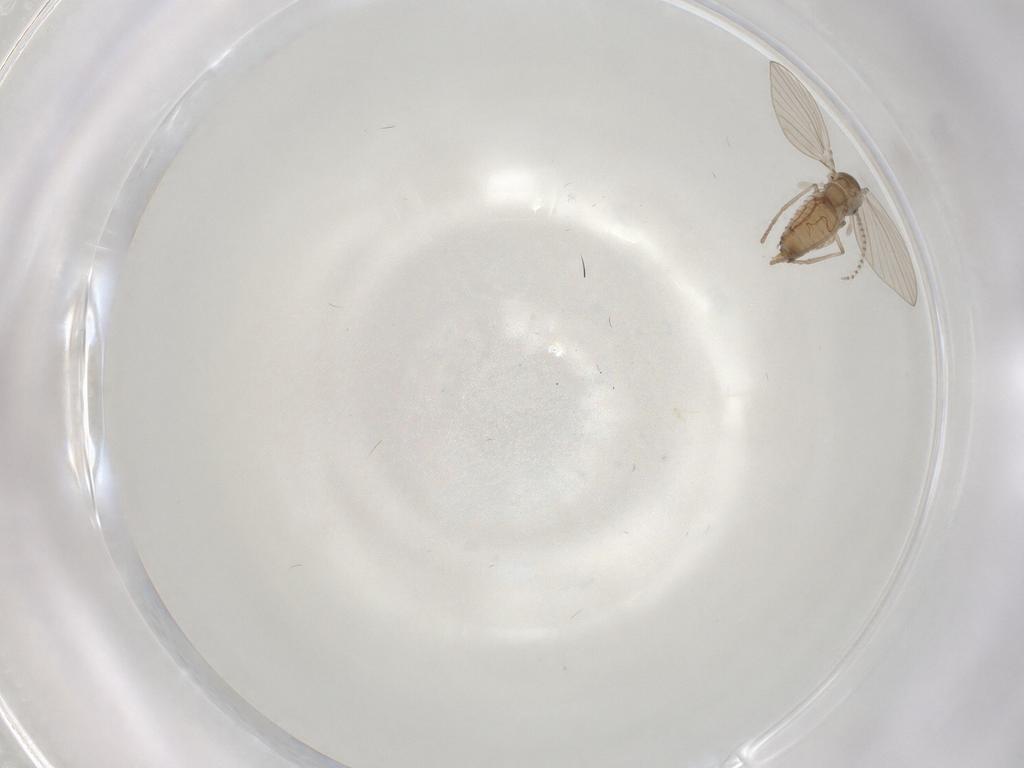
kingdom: Animalia
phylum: Arthropoda
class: Insecta
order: Diptera
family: Psychodidae
